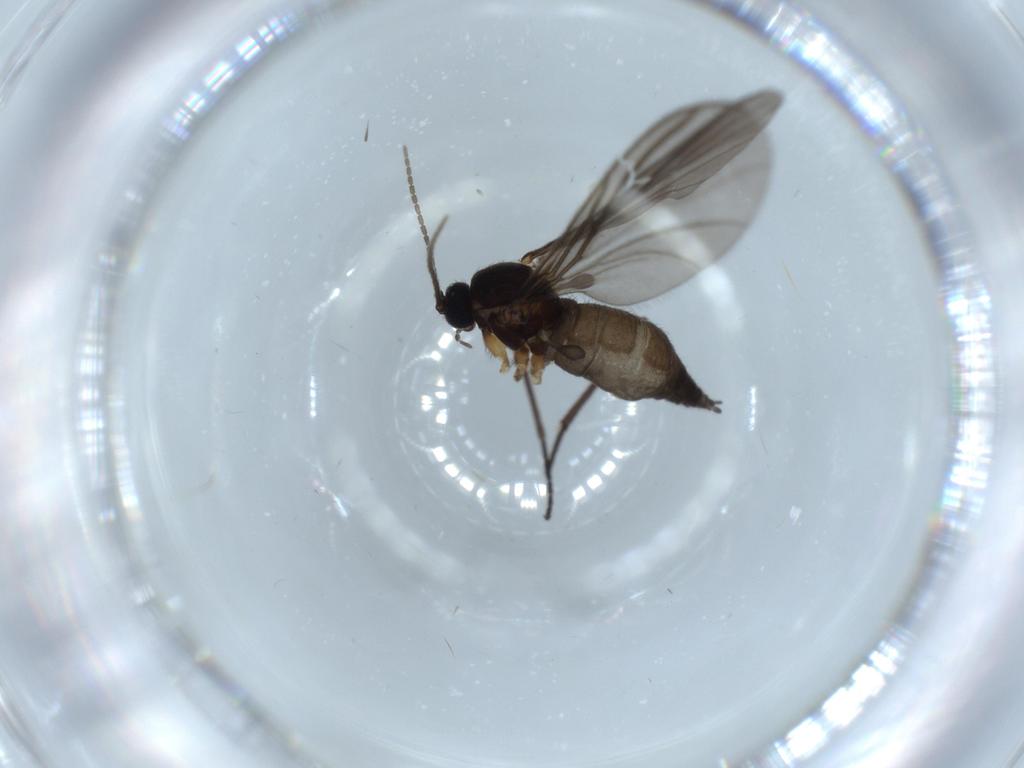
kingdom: Animalia
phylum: Arthropoda
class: Insecta
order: Diptera
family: Sciaridae
